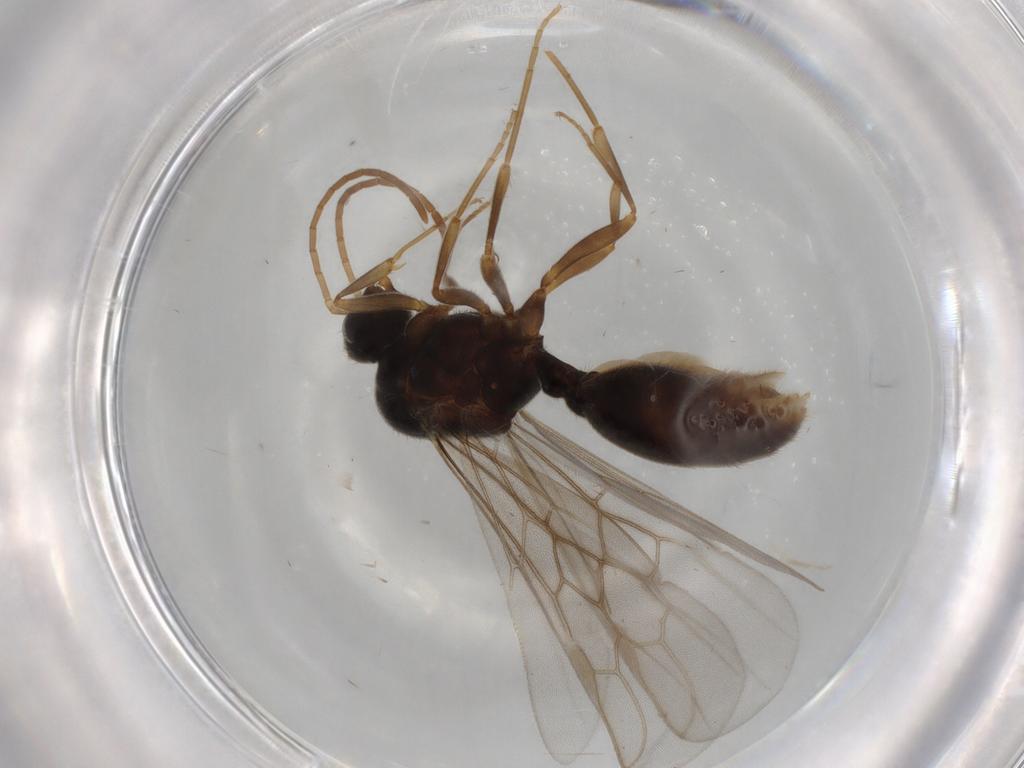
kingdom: Animalia
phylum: Arthropoda
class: Insecta
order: Hymenoptera
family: Formicidae
